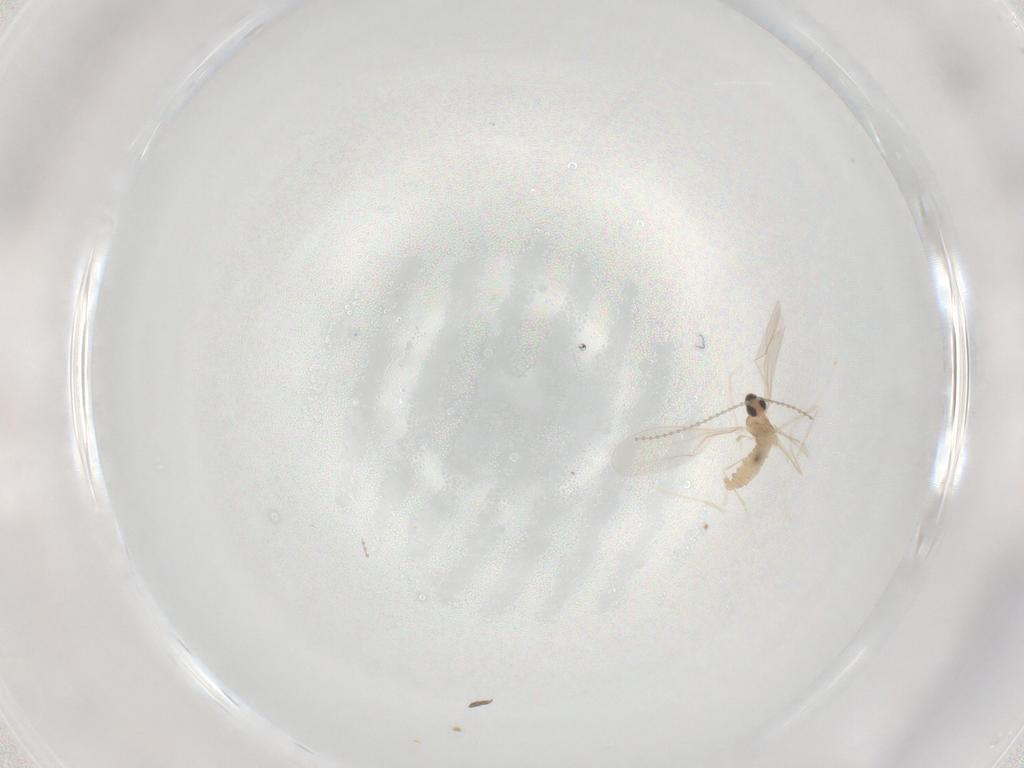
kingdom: Animalia
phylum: Arthropoda
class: Insecta
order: Diptera
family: Mycetophilidae
